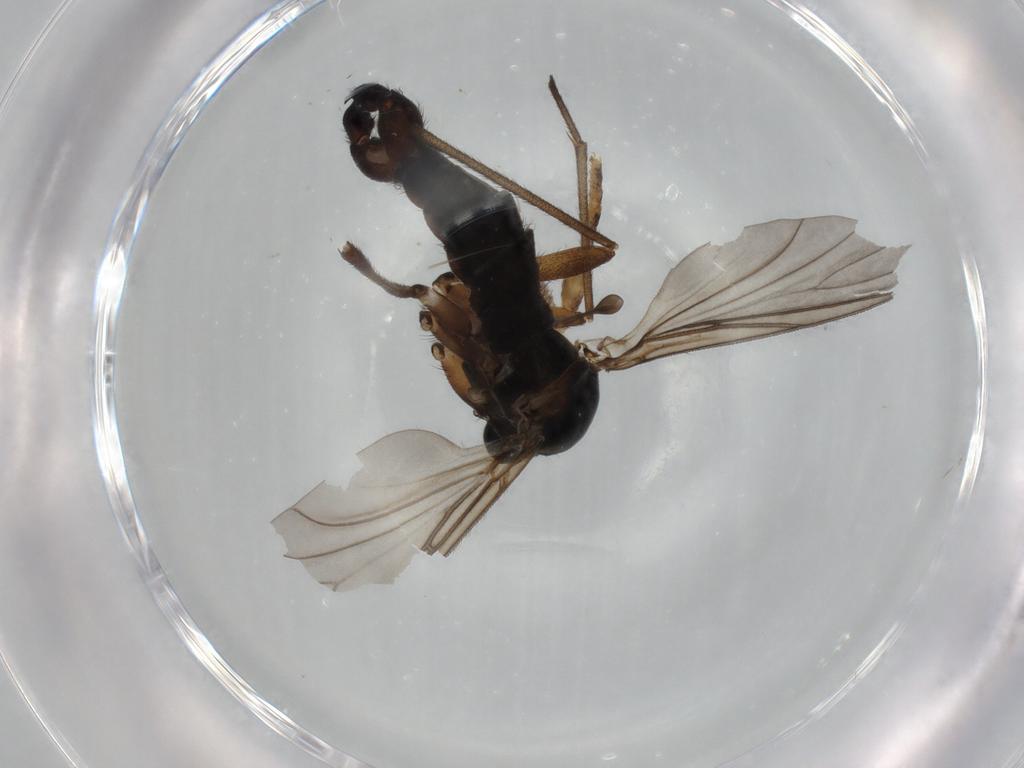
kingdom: Animalia
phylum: Arthropoda
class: Insecta
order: Diptera
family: Sciaridae
